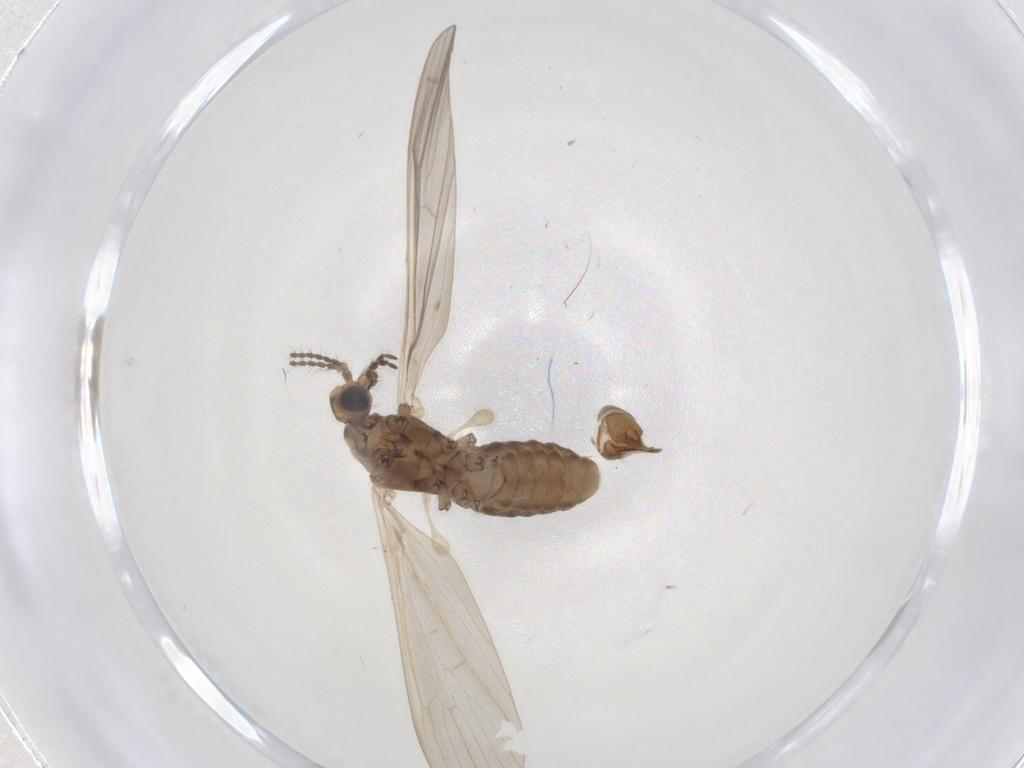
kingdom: Animalia
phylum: Arthropoda
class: Insecta
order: Diptera
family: Limoniidae
